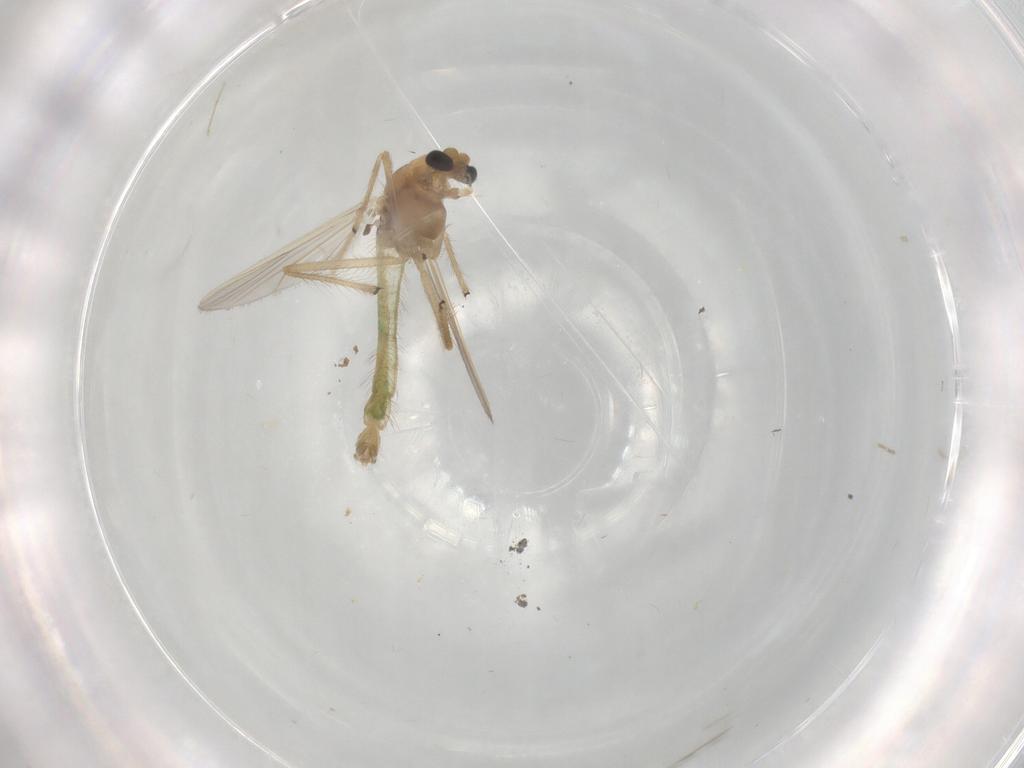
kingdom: Animalia
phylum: Arthropoda
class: Insecta
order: Diptera
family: Chironomidae
